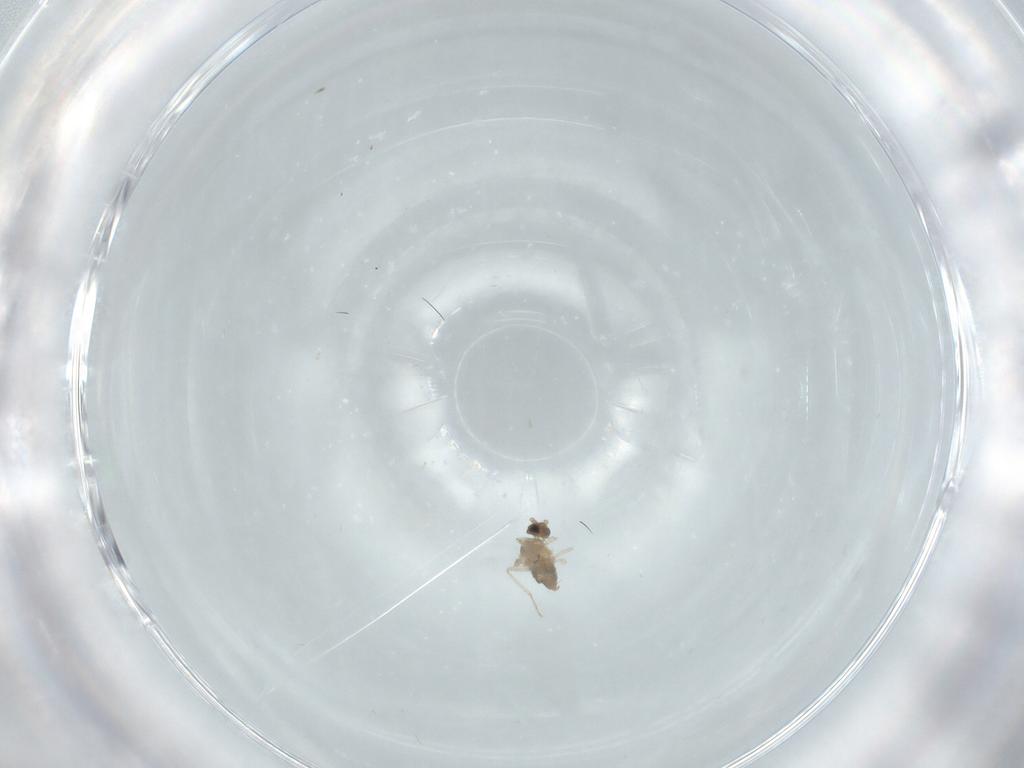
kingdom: Animalia
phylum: Arthropoda
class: Insecta
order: Diptera
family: Cecidomyiidae
